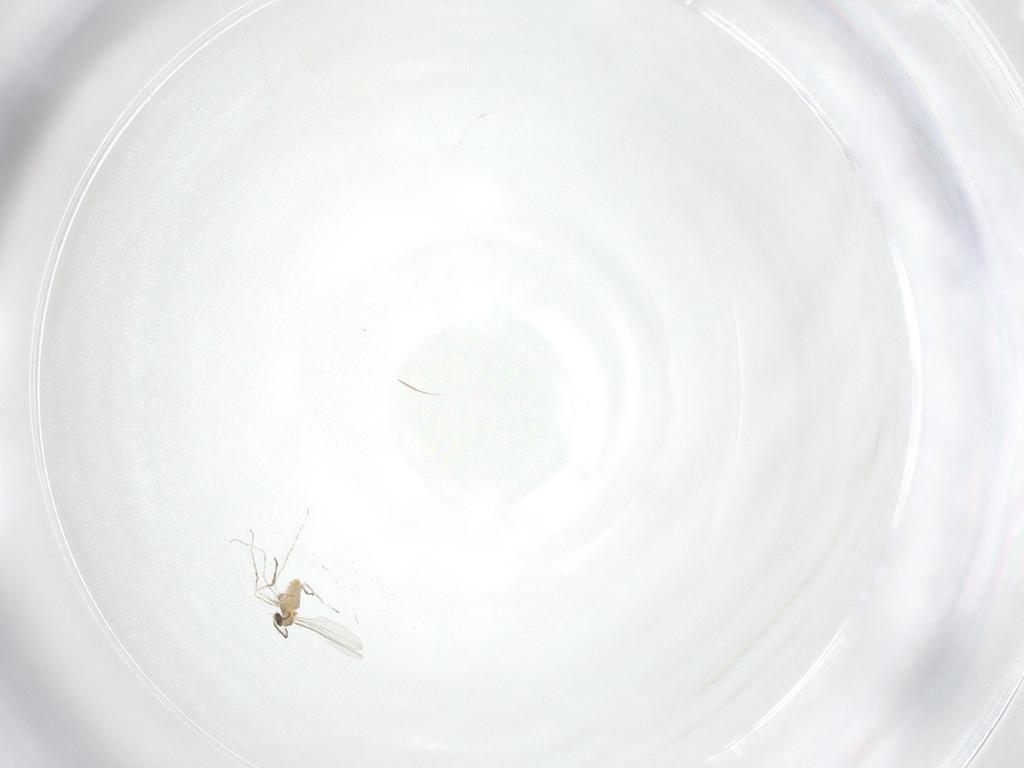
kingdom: Animalia
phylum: Arthropoda
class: Insecta
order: Diptera
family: Cecidomyiidae
